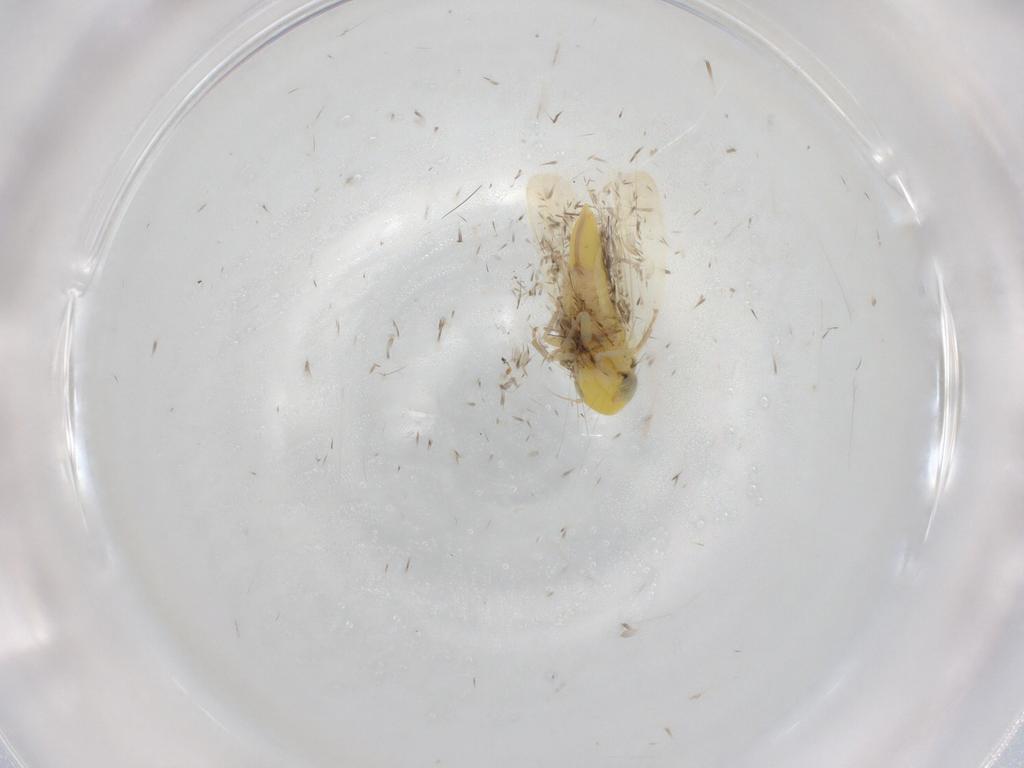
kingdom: Animalia
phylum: Arthropoda
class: Insecta
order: Hemiptera
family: Cicadellidae
